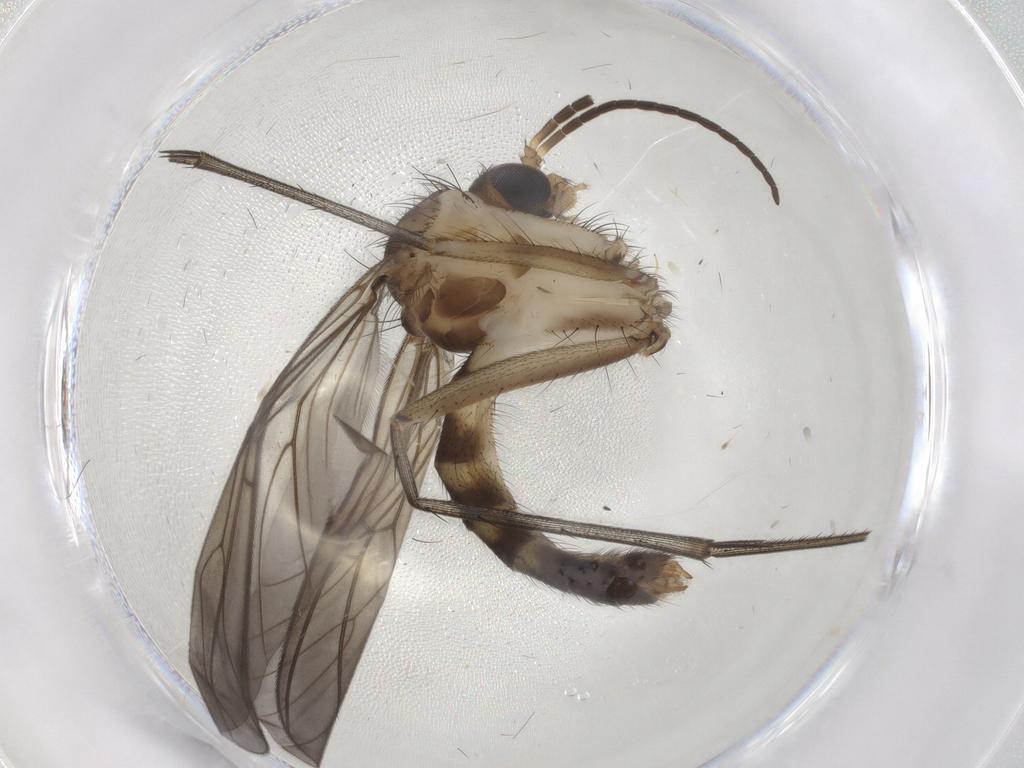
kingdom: Animalia
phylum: Arthropoda
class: Insecta
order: Diptera
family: Mycetophilidae
